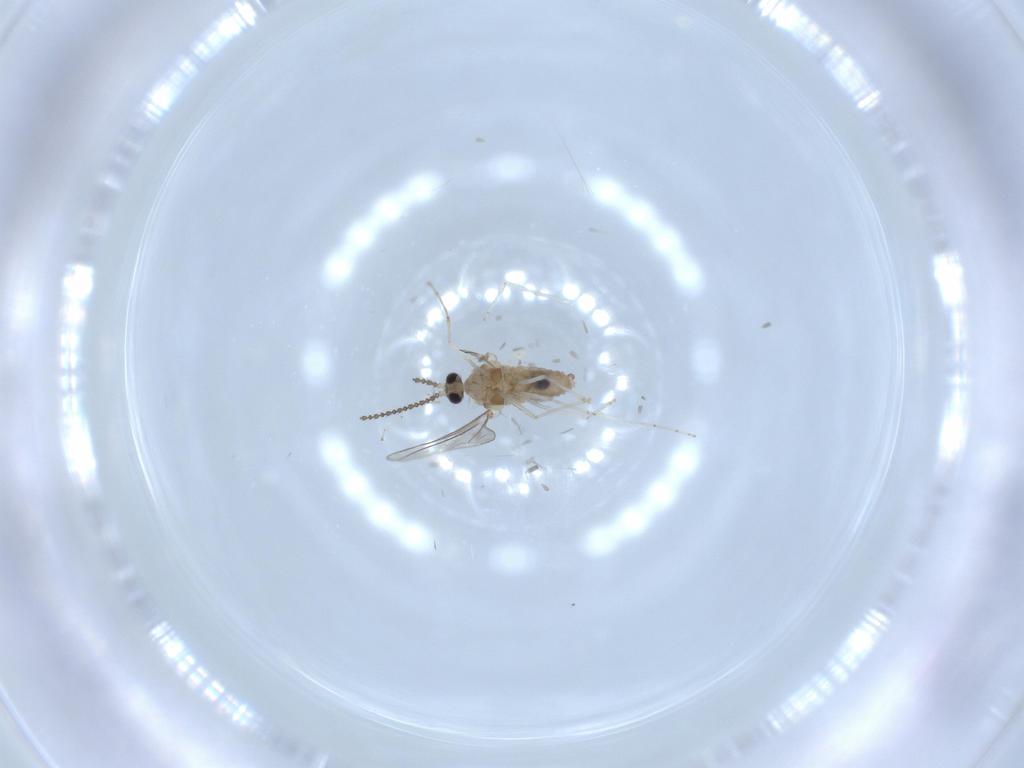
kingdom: Animalia
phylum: Arthropoda
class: Insecta
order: Diptera
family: Cecidomyiidae
